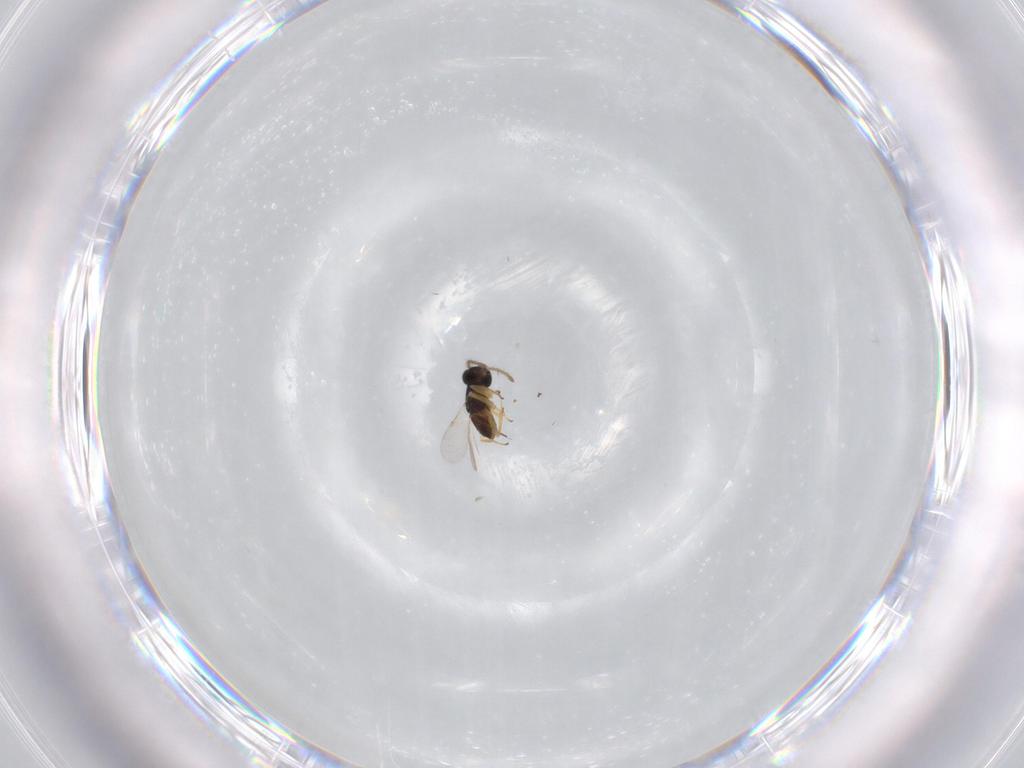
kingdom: Animalia
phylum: Arthropoda
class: Insecta
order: Hymenoptera
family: Encyrtidae
